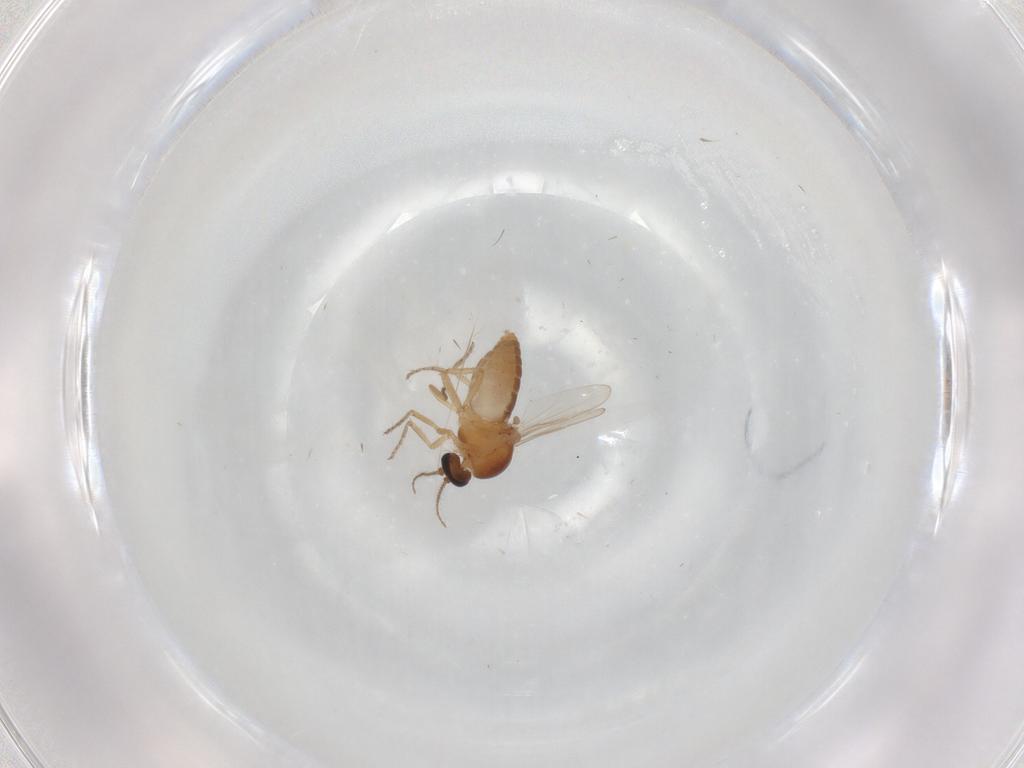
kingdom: Animalia
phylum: Arthropoda
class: Insecta
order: Diptera
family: Ceratopogonidae
